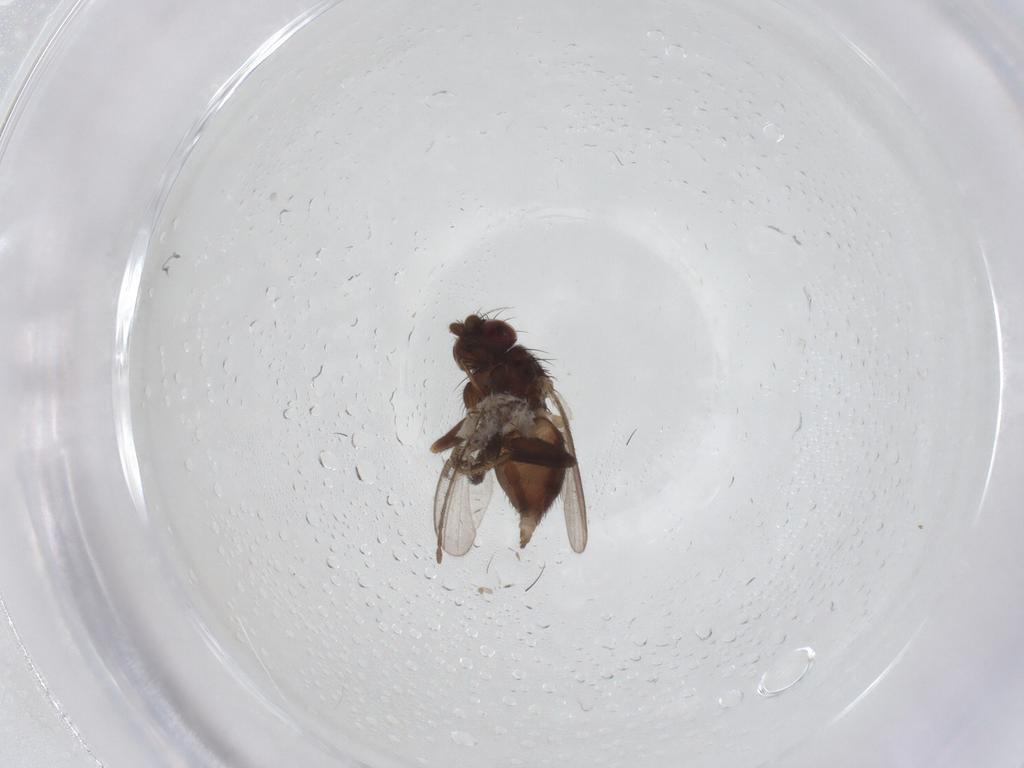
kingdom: Animalia
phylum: Arthropoda
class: Insecta
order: Diptera
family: Milichiidae
